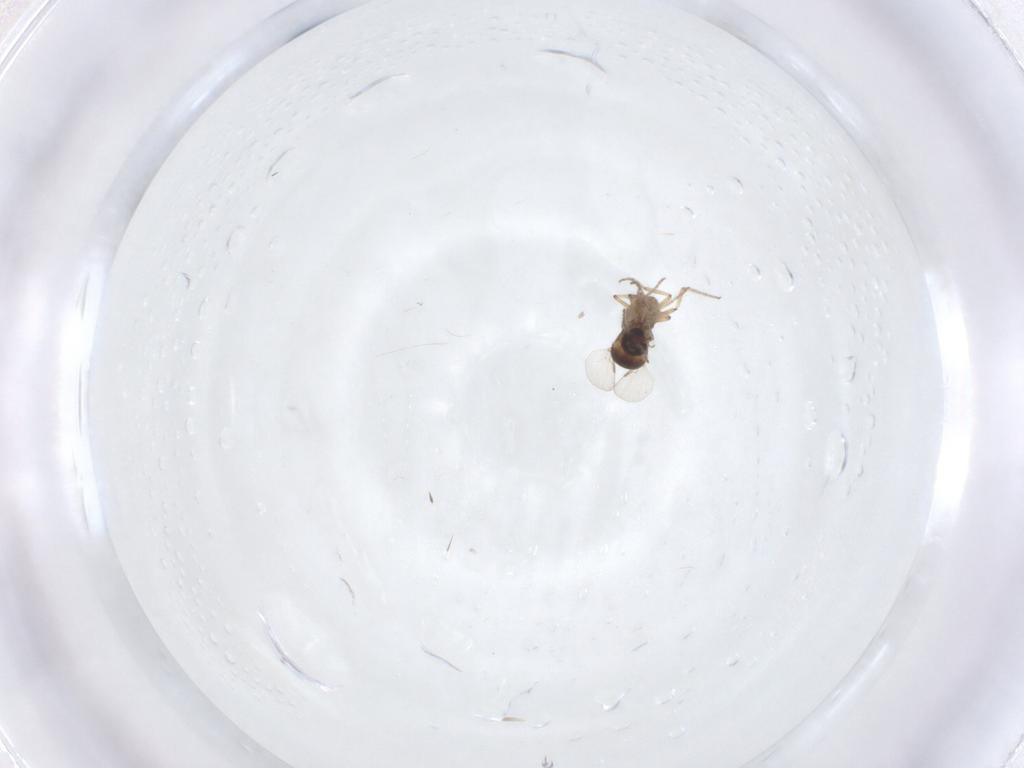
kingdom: Animalia
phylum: Arthropoda
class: Insecta
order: Diptera
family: Ceratopogonidae
